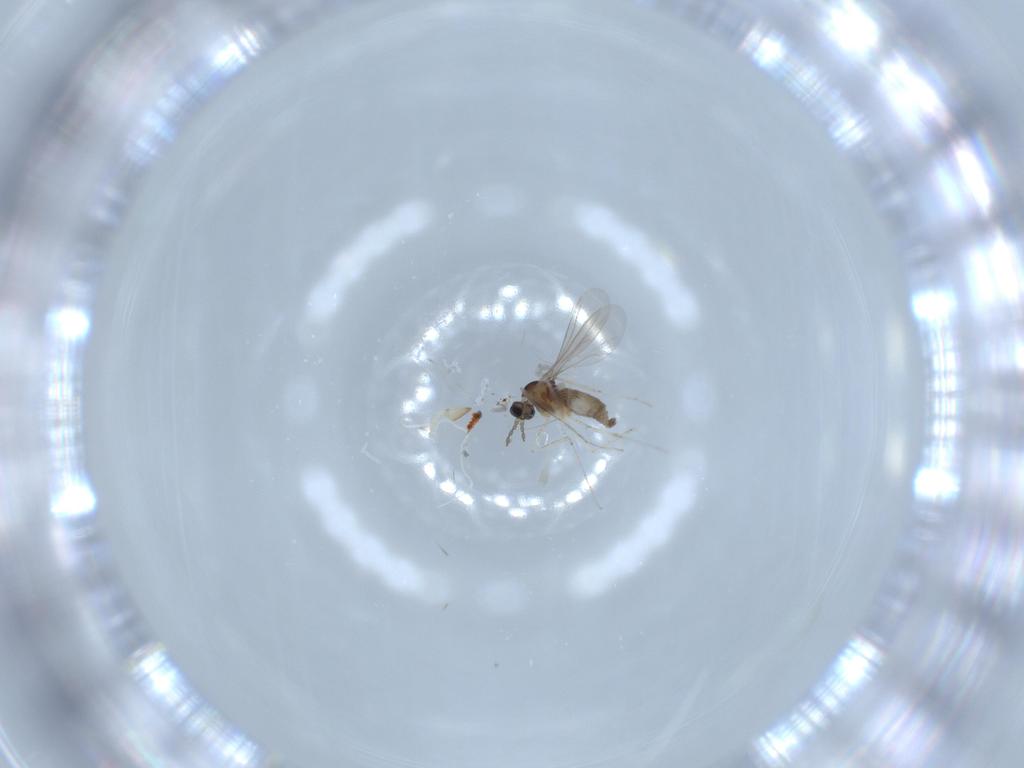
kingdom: Animalia
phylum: Arthropoda
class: Insecta
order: Diptera
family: Cecidomyiidae
